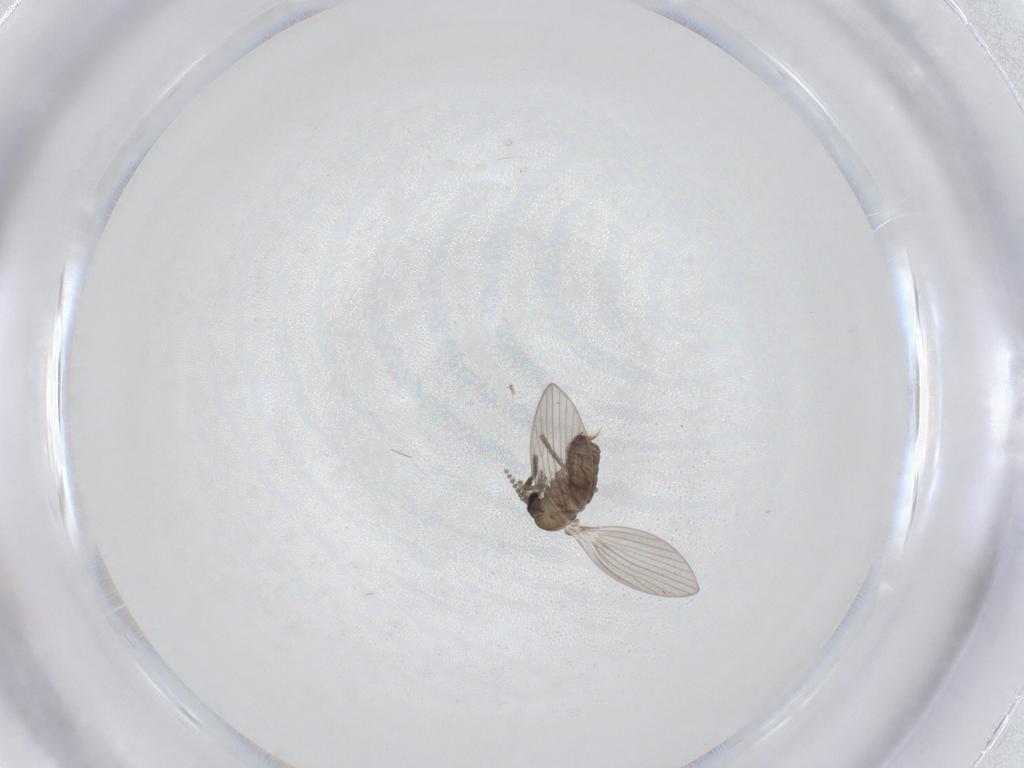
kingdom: Animalia
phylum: Arthropoda
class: Insecta
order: Diptera
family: Psychodidae
